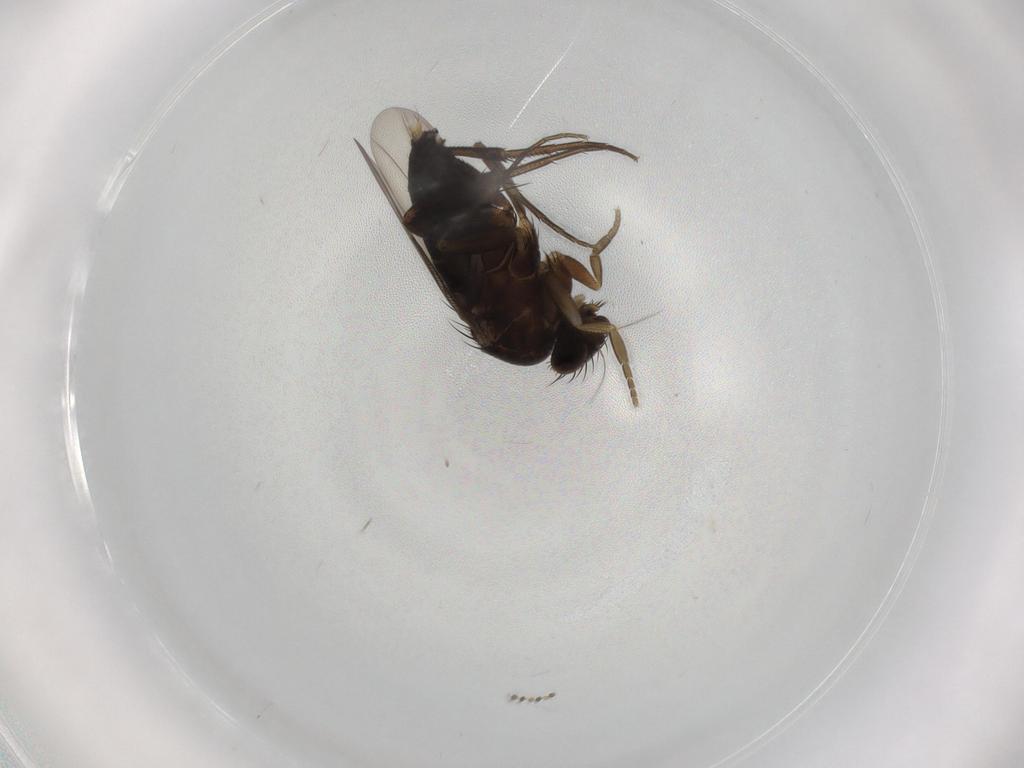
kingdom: Animalia
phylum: Arthropoda
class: Insecta
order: Diptera
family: Phoridae
